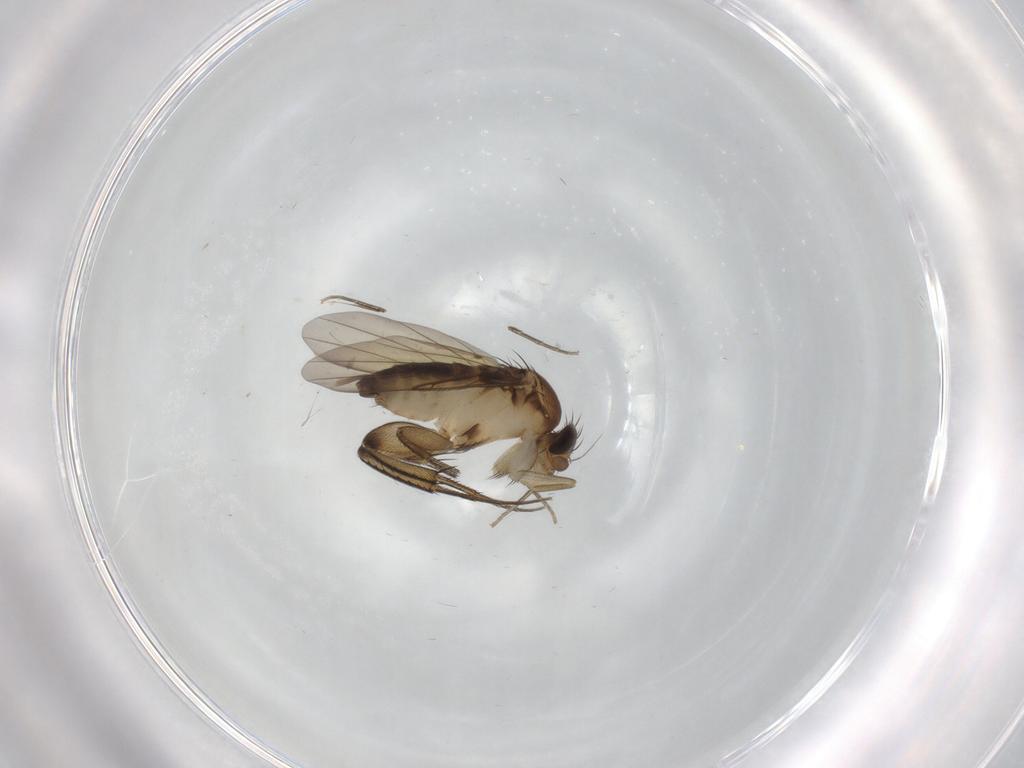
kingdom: Animalia
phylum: Arthropoda
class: Insecta
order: Diptera
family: Phoridae
